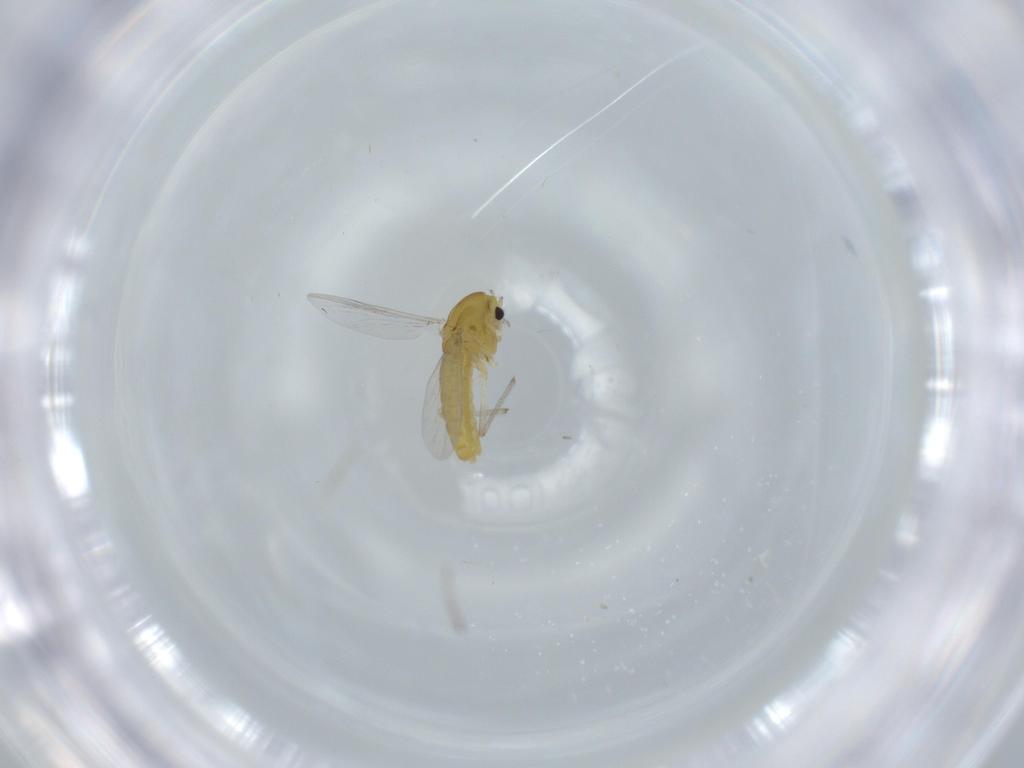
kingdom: Animalia
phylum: Arthropoda
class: Insecta
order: Diptera
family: Chironomidae
